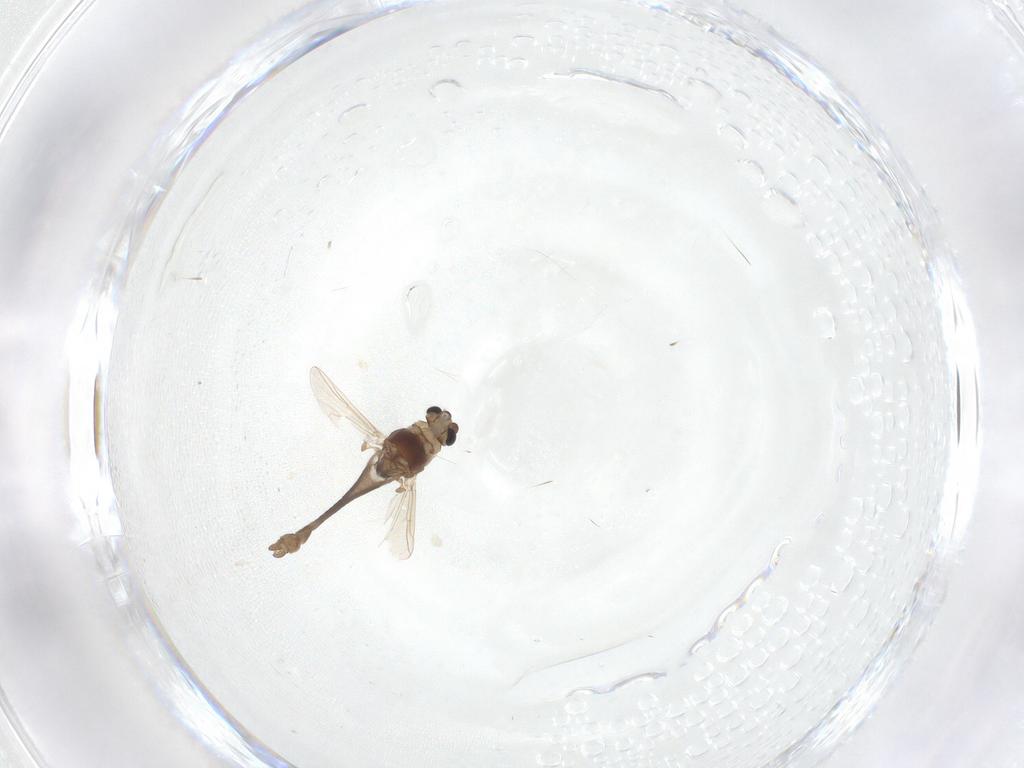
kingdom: Animalia
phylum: Arthropoda
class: Insecta
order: Diptera
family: Chironomidae
